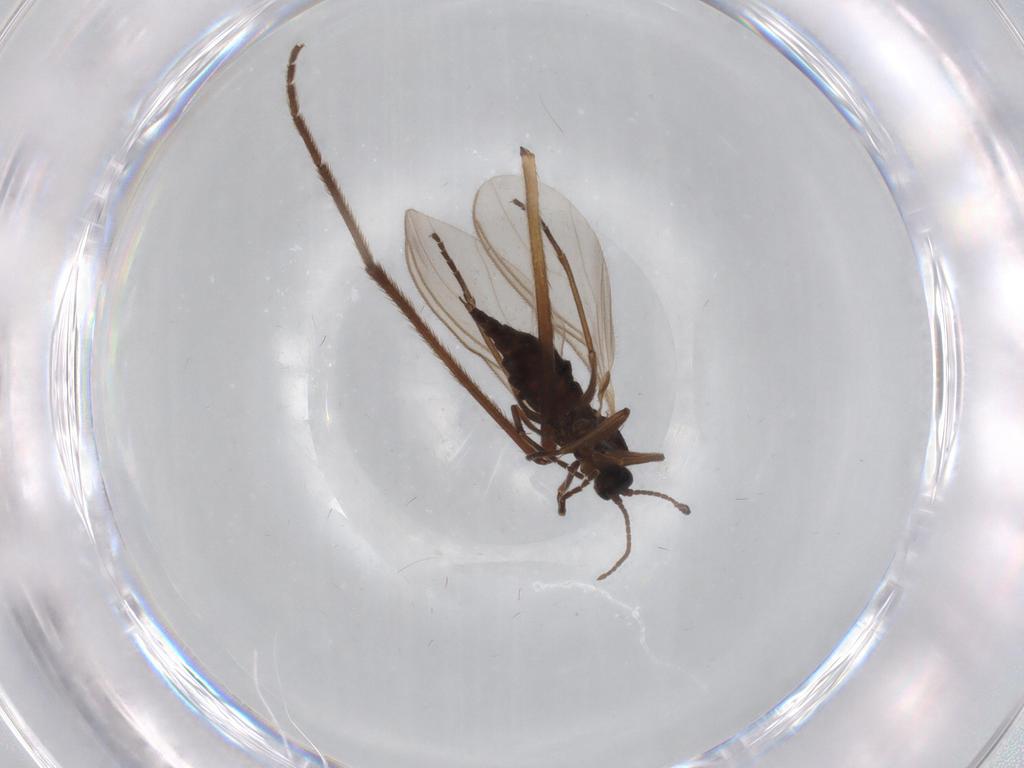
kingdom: Animalia
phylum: Arthropoda
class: Insecta
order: Diptera
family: Sciaridae
